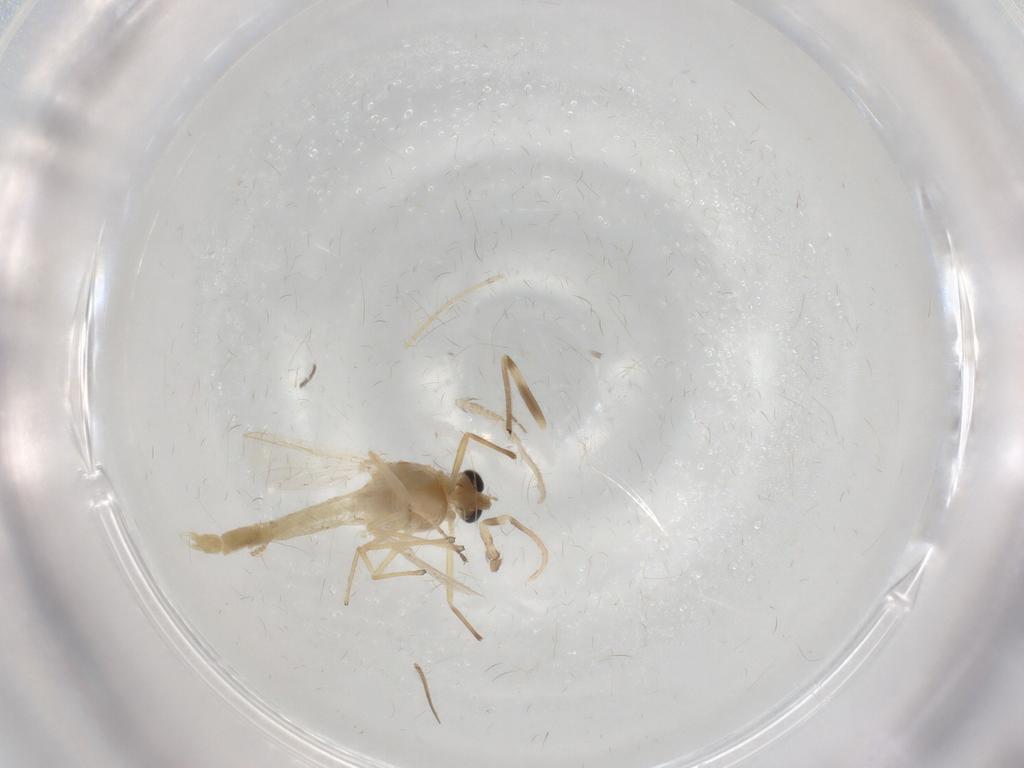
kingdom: Animalia
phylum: Arthropoda
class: Insecta
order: Diptera
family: Chironomidae
